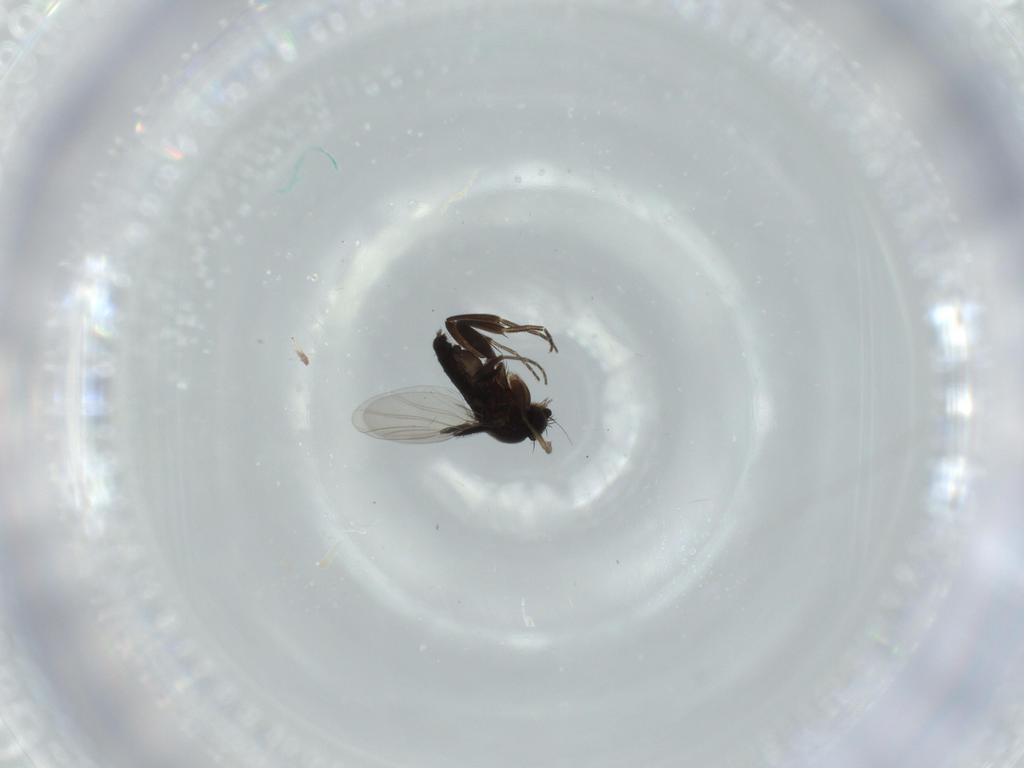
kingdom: Animalia
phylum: Arthropoda
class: Insecta
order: Diptera
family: Phoridae
